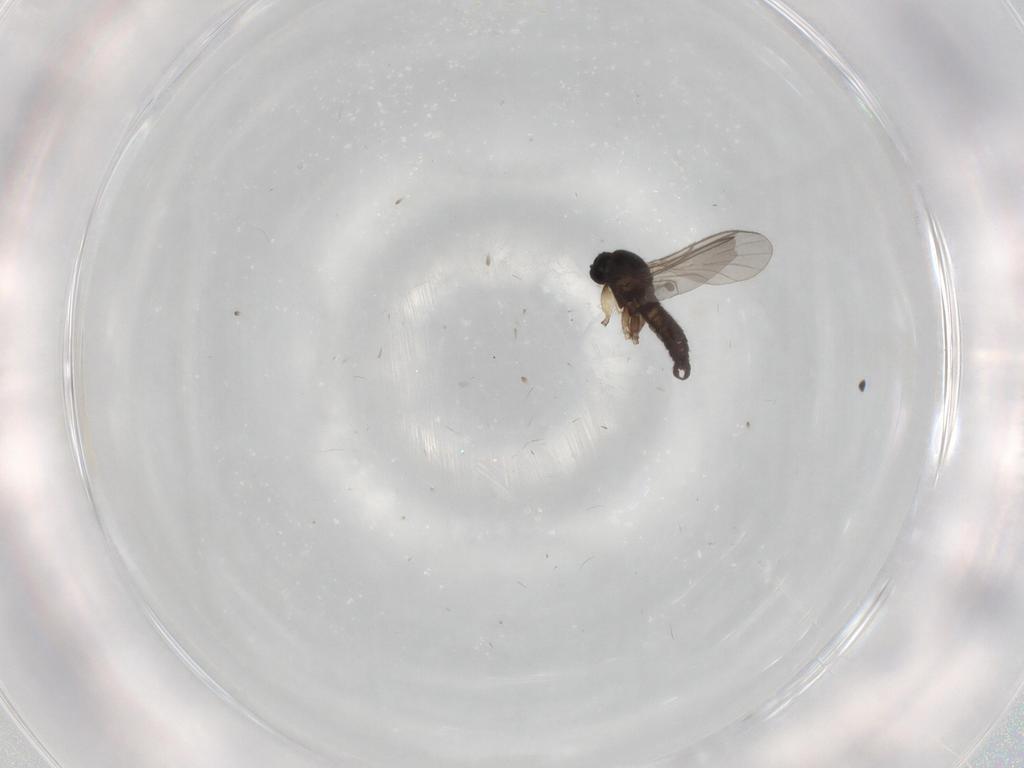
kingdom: Animalia
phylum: Arthropoda
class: Insecta
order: Diptera
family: Sciaridae
